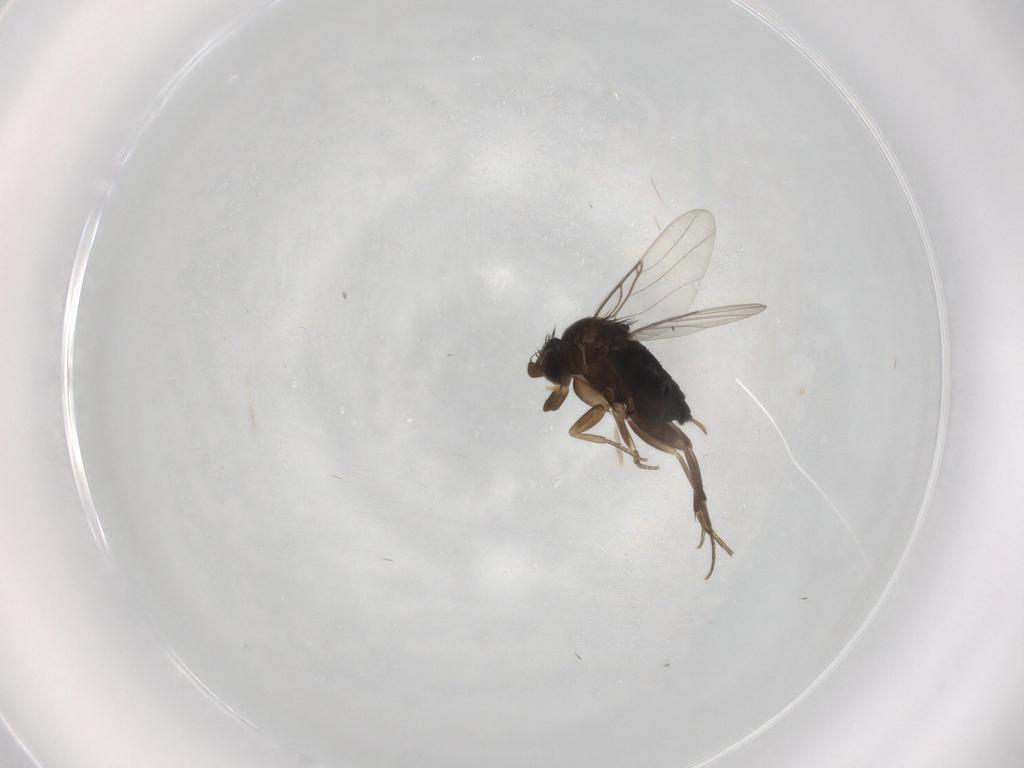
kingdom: Animalia
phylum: Arthropoda
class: Insecta
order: Diptera
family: Phoridae
